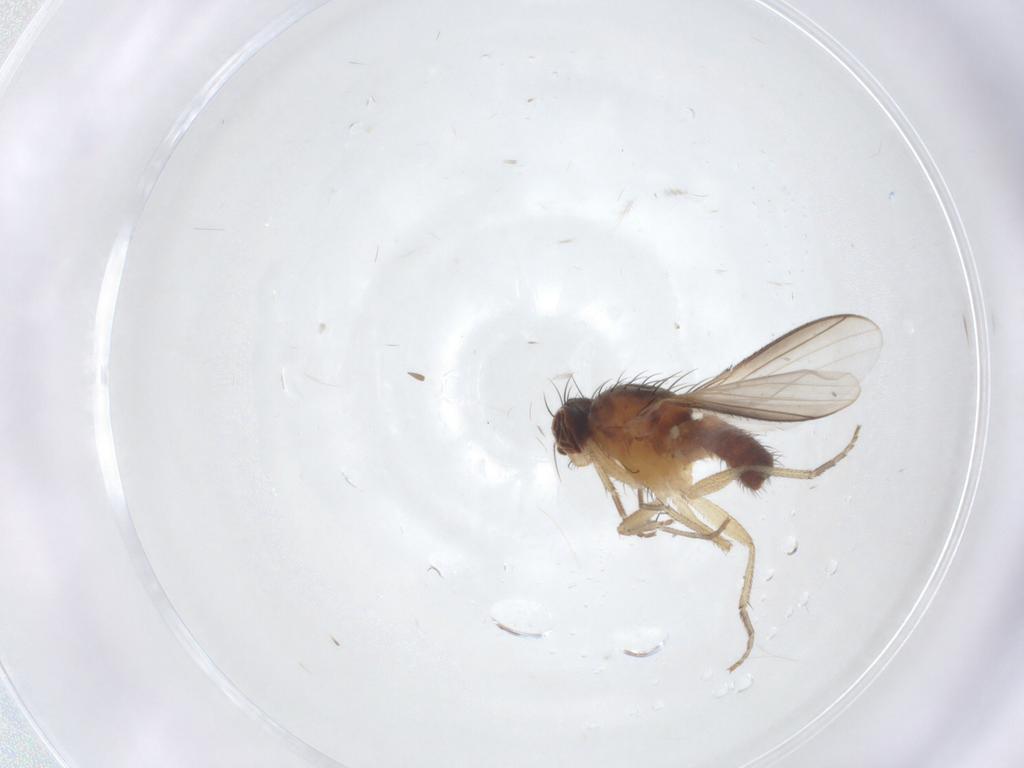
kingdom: Animalia
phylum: Arthropoda
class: Insecta
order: Diptera
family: Heleomyzidae
